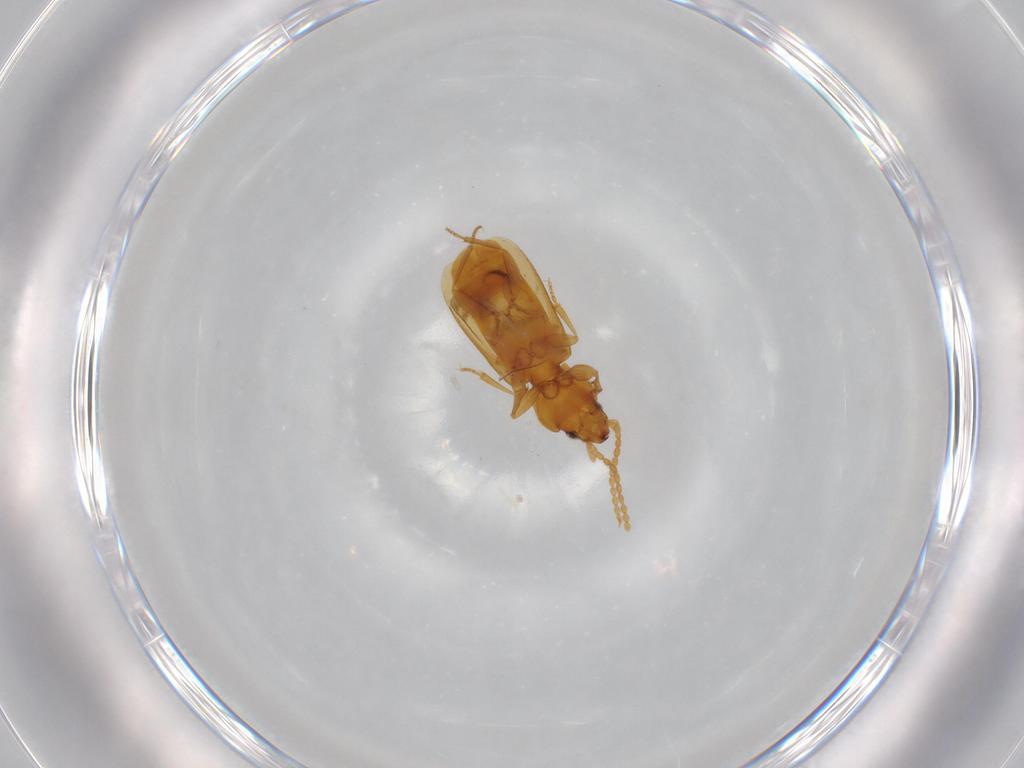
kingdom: Animalia
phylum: Arthropoda
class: Insecta
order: Coleoptera
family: Carabidae
